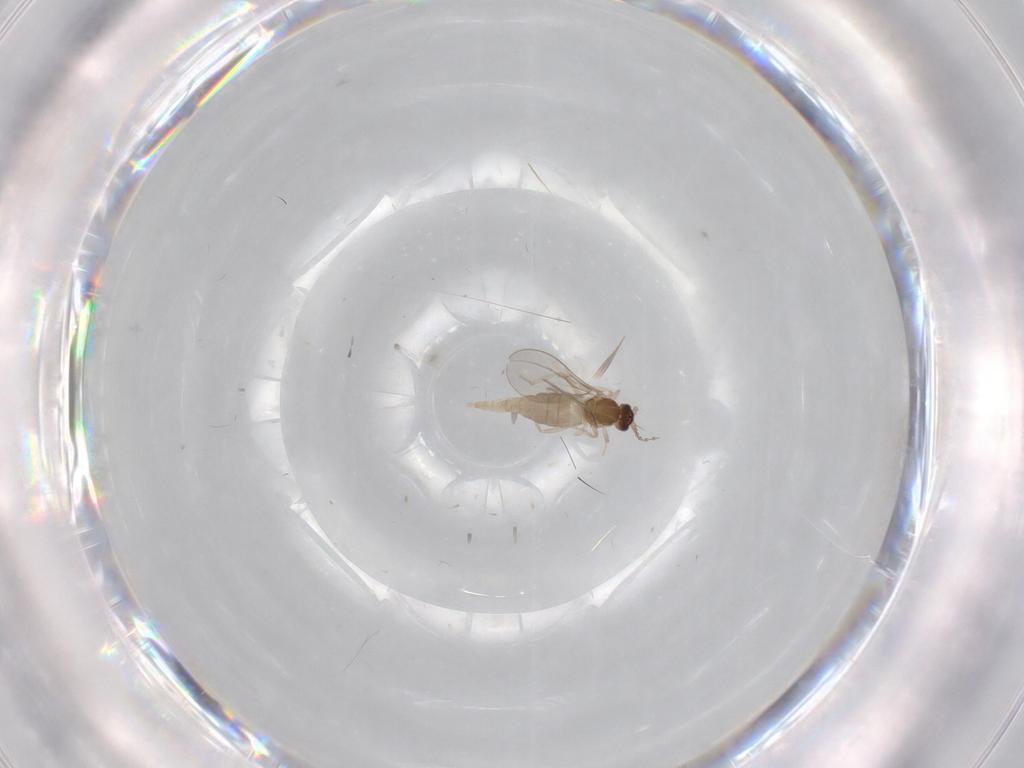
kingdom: Animalia
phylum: Arthropoda
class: Insecta
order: Diptera
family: Cecidomyiidae
